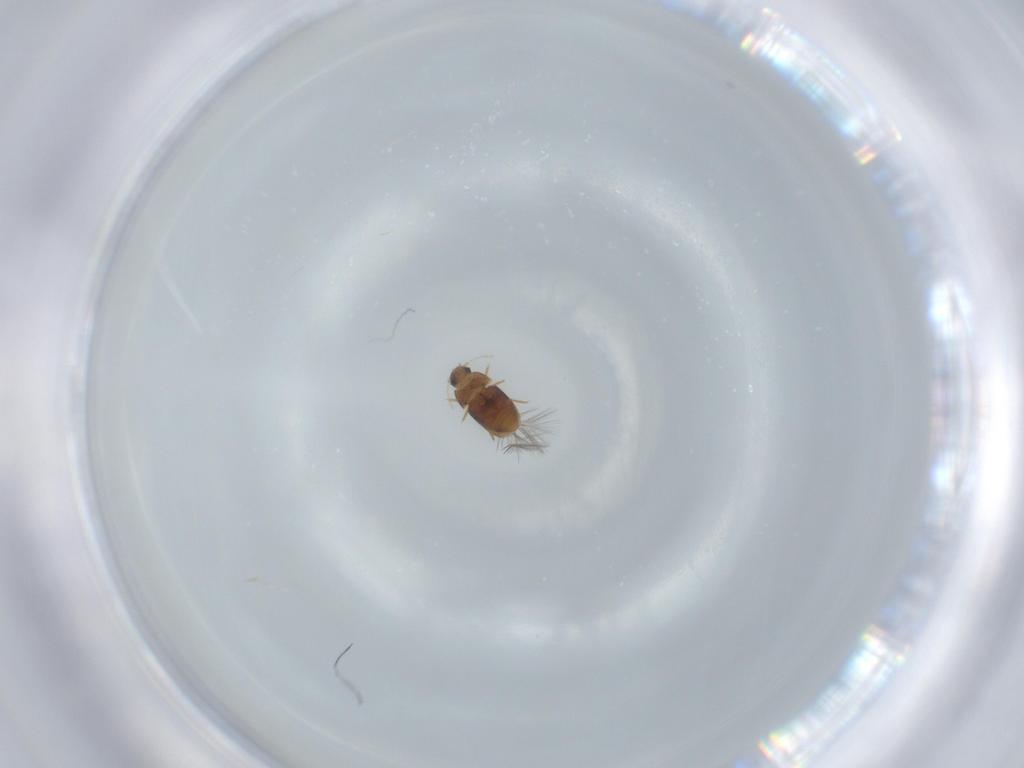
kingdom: Animalia
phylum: Arthropoda
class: Insecta
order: Coleoptera
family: Ptiliidae
